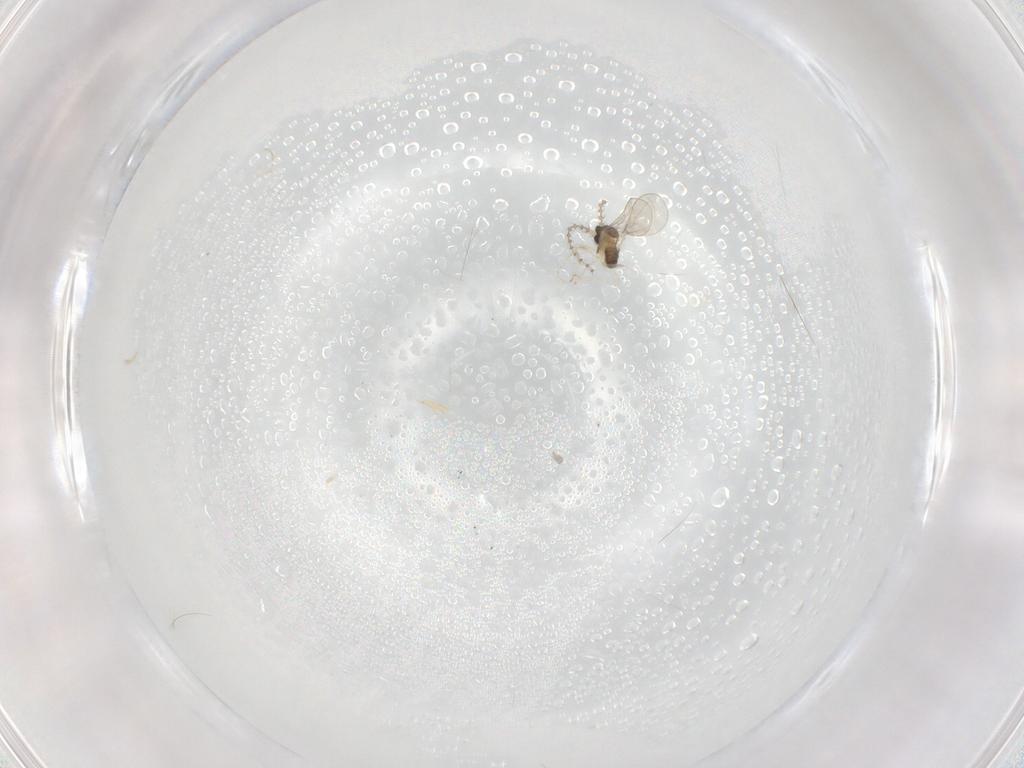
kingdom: Animalia
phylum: Arthropoda
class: Insecta
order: Diptera
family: Cecidomyiidae
